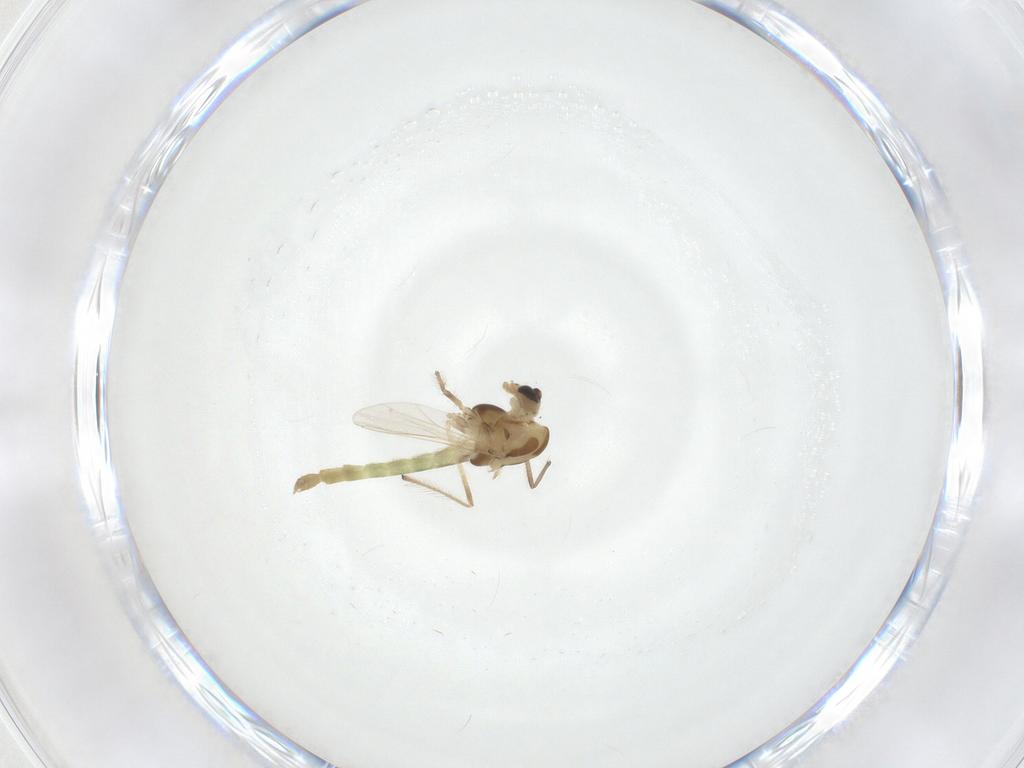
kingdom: Animalia
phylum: Arthropoda
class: Insecta
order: Diptera
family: Chironomidae
